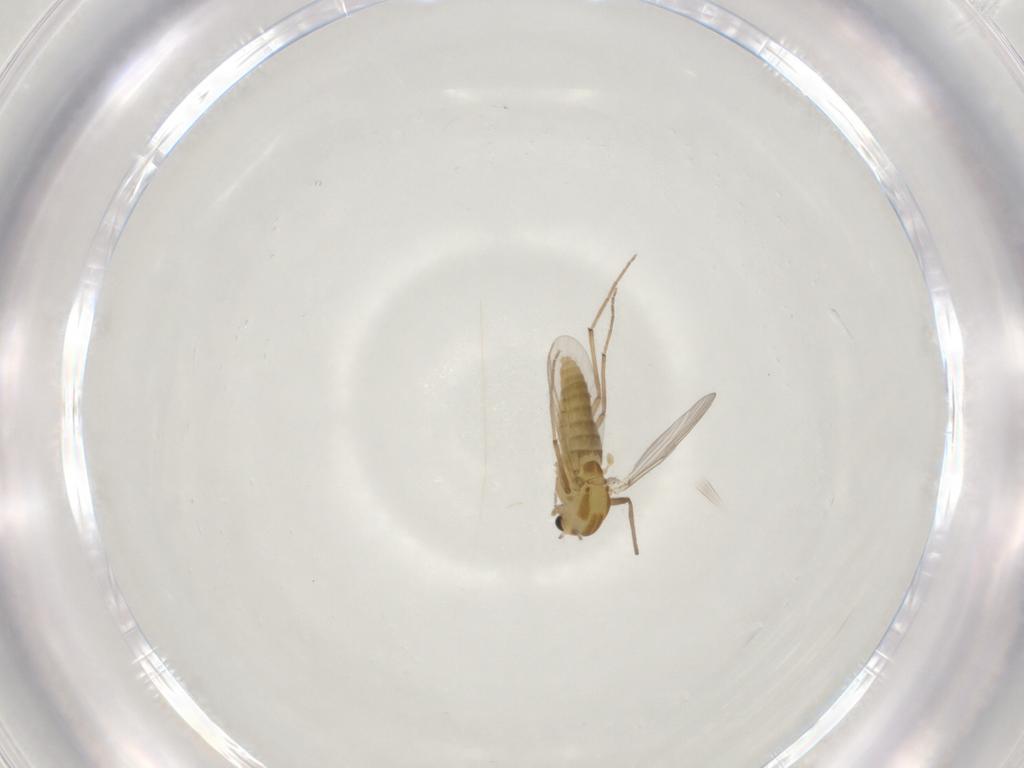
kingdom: Animalia
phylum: Arthropoda
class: Insecta
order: Diptera
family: Chironomidae
